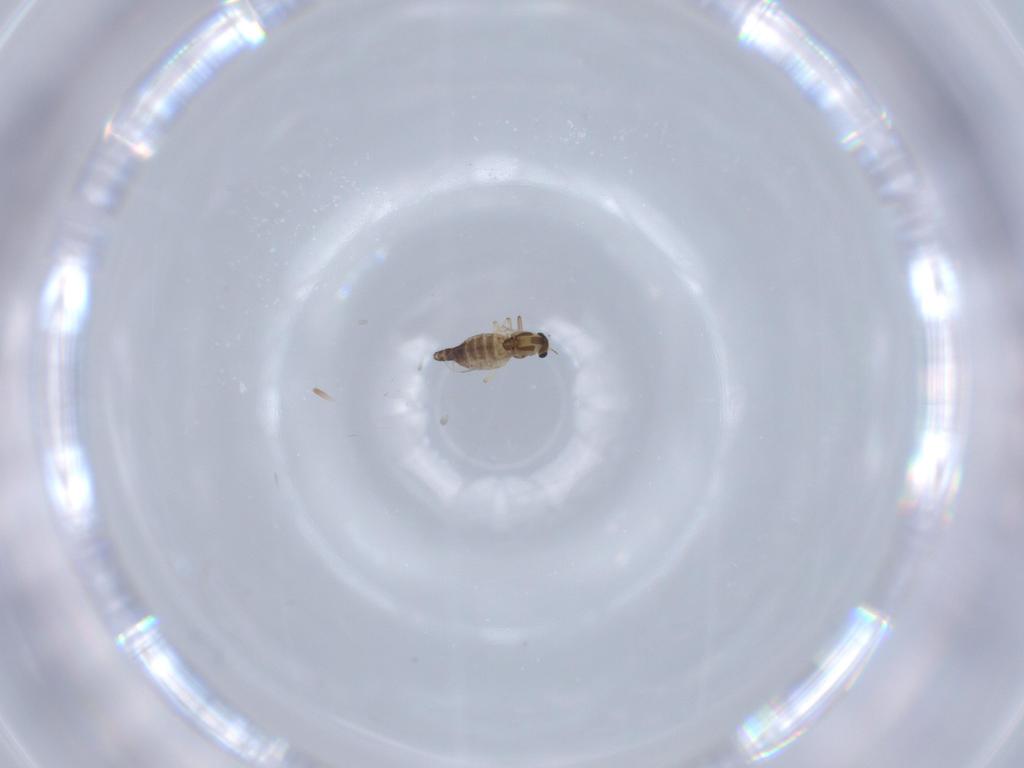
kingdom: Animalia
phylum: Arthropoda
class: Insecta
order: Diptera
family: Chironomidae
